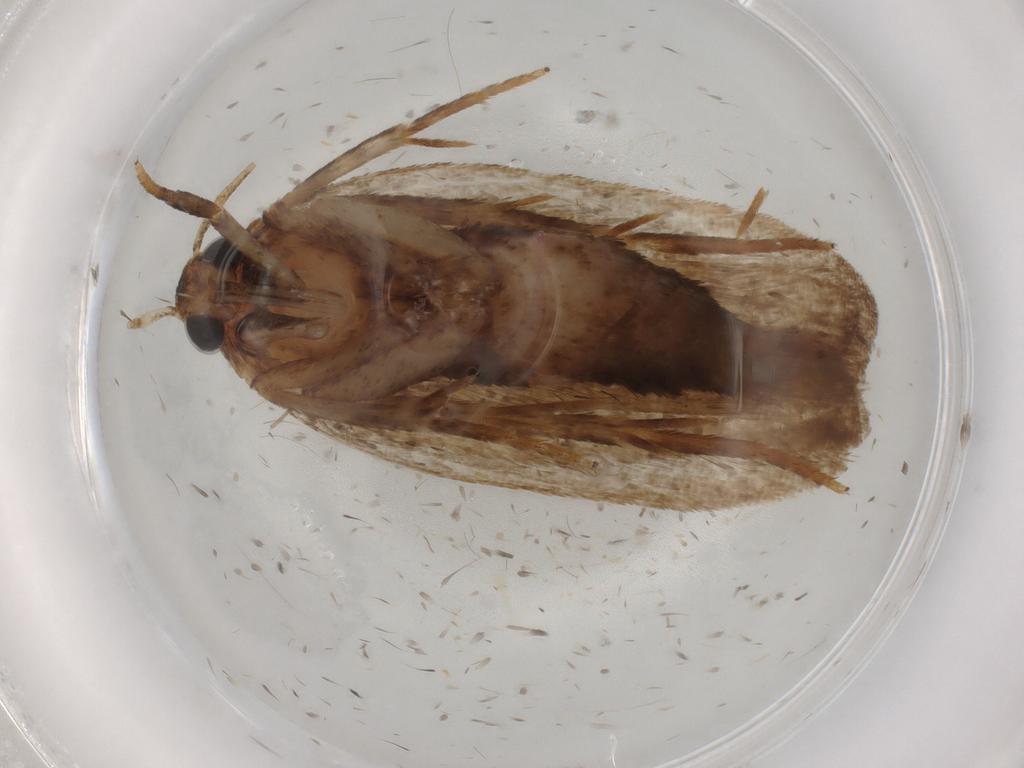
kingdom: Animalia
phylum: Arthropoda
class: Insecta
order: Lepidoptera
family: Autostichidae
